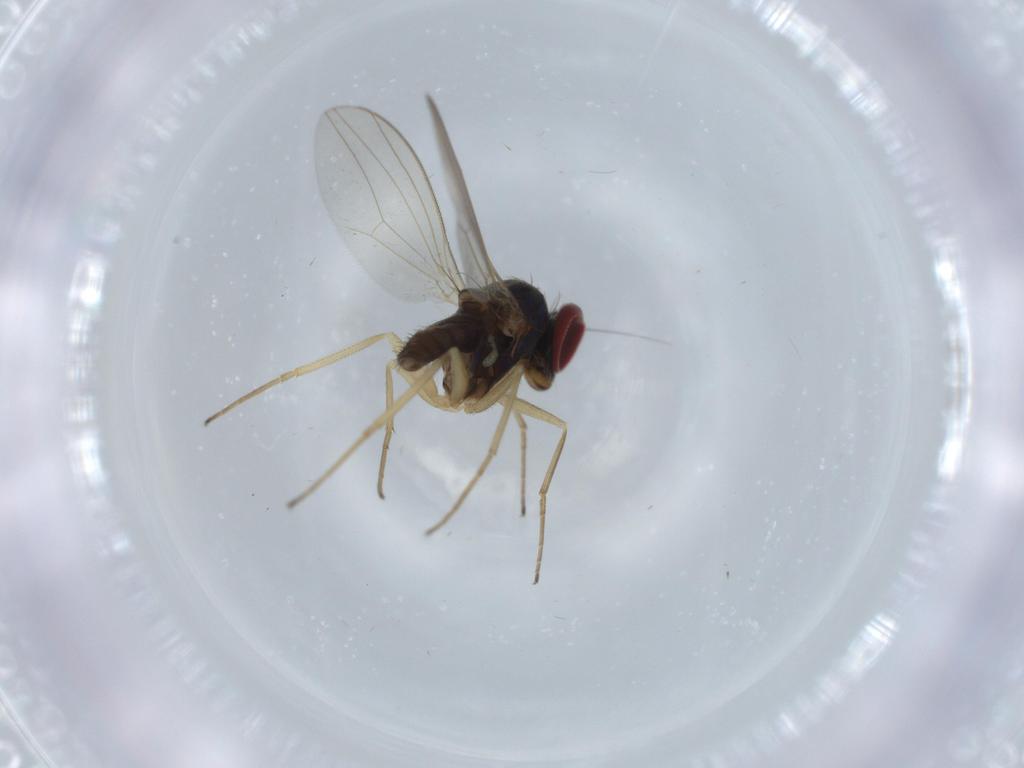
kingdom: Animalia
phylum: Arthropoda
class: Insecta
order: Diptera
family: Dolichopodidae
